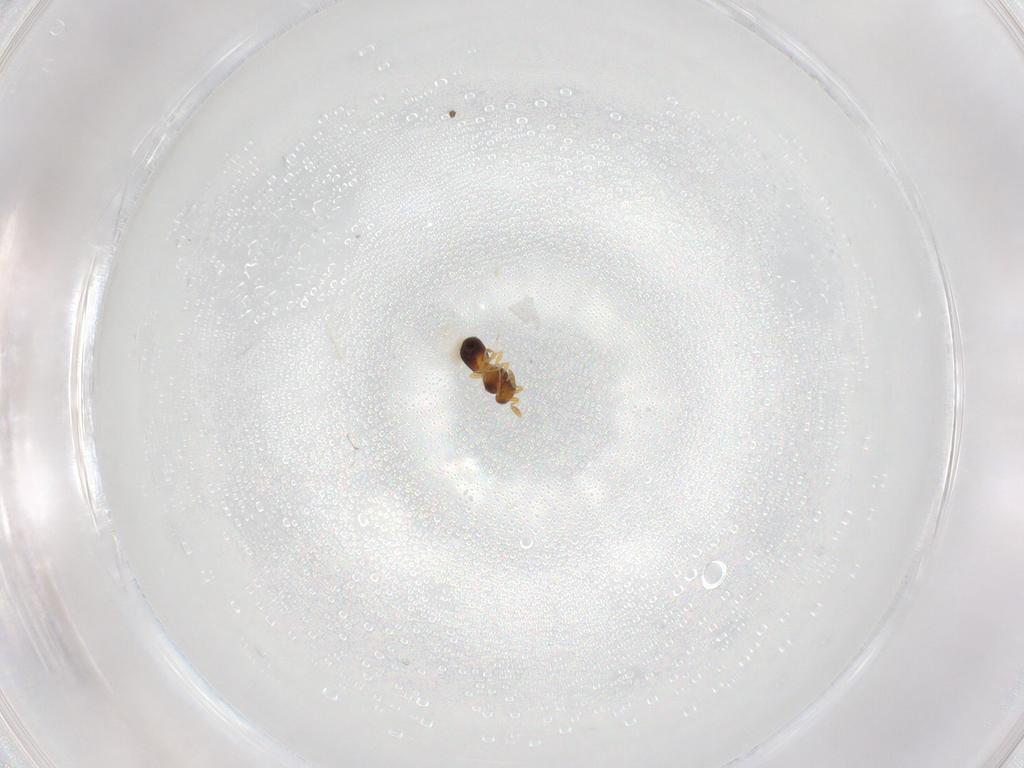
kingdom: Animalia
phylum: Arthropoda
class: Insecta
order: Hymenoptera
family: Platygastridae
